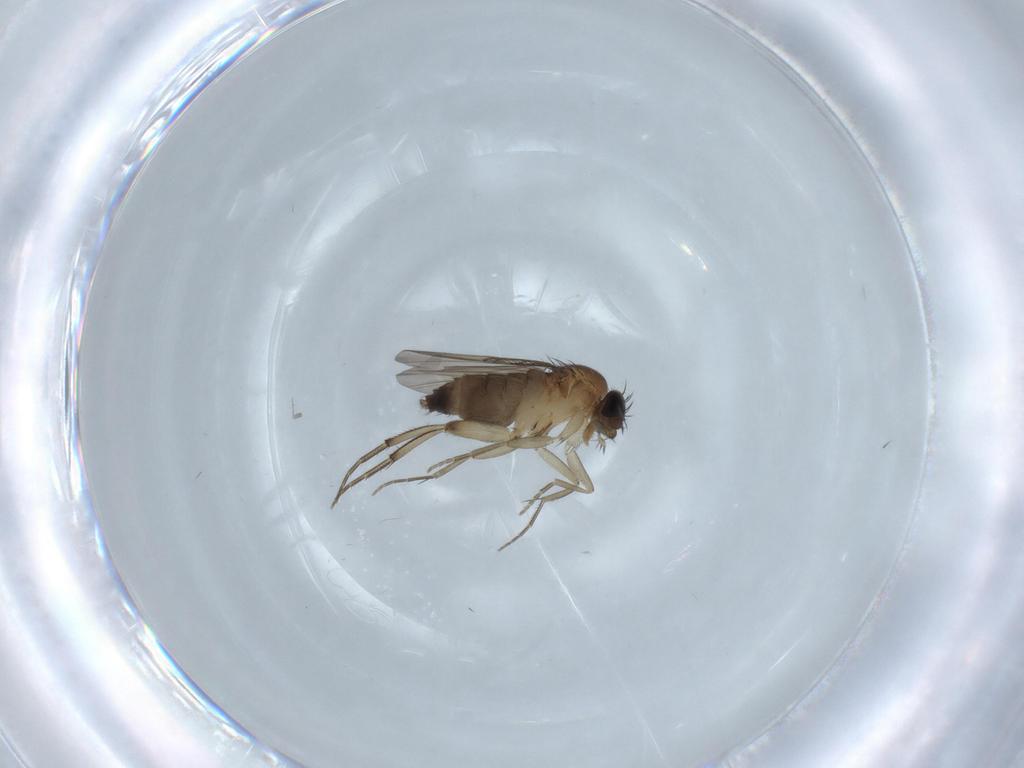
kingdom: Animalia
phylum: Arthropoda
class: Insecta
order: Diptera
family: Phoridae
